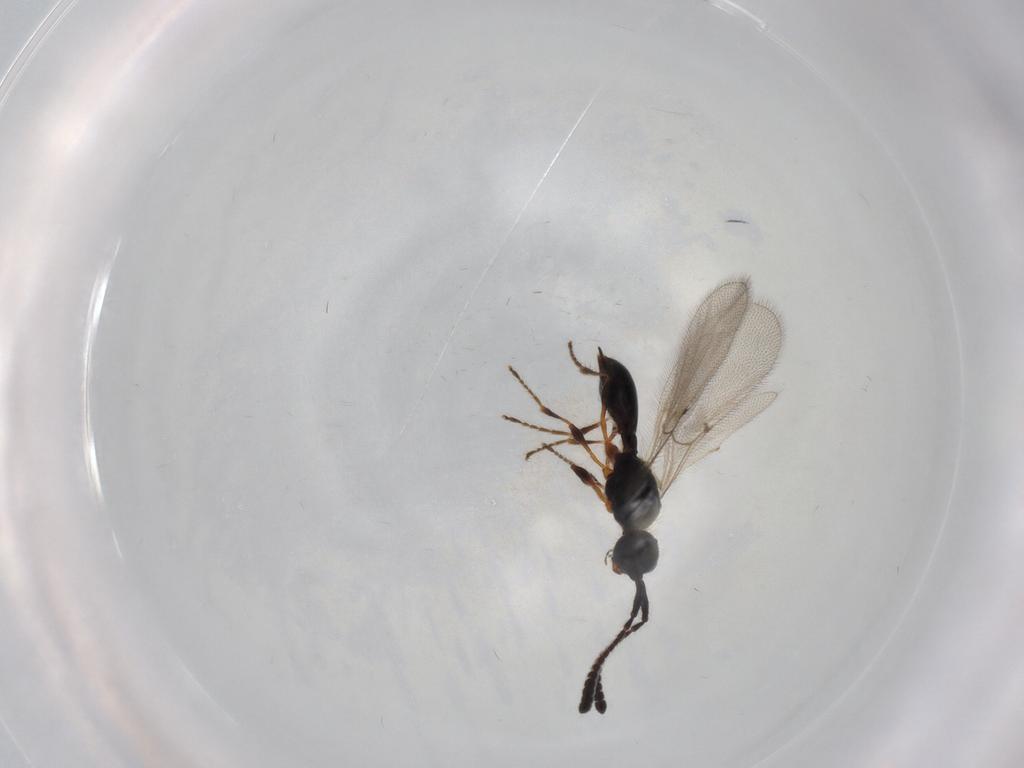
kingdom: Animalia
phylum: Arthropoda
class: Insecta
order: Hymenoptera
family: Diapriidae
